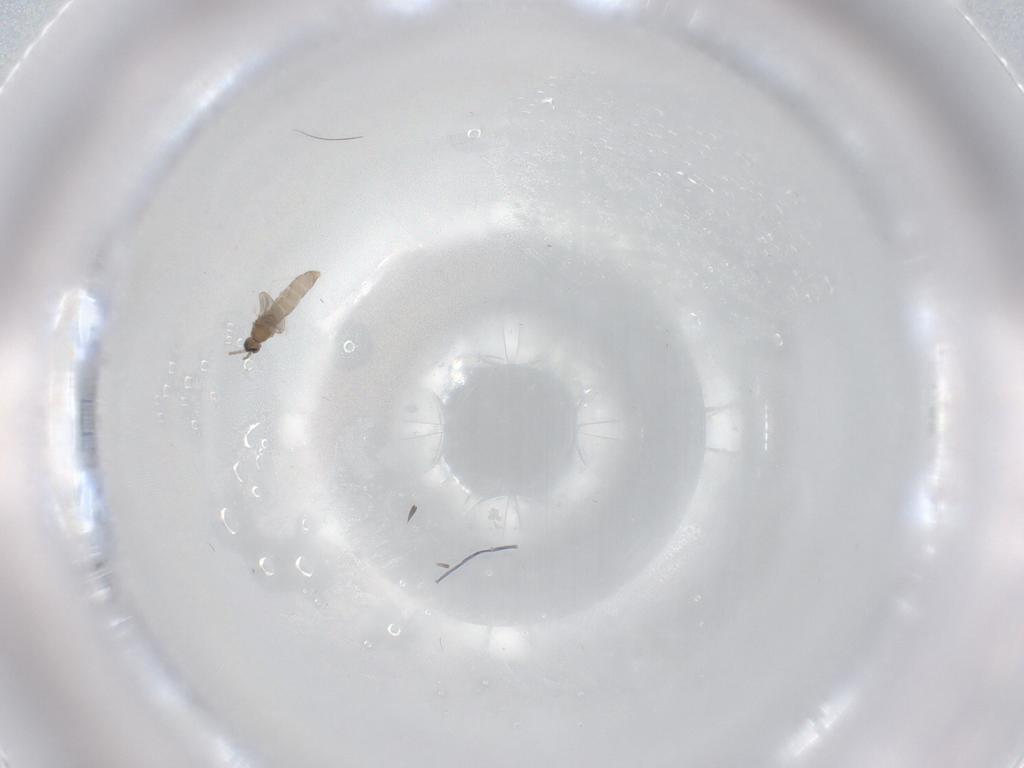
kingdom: Animalia
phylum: Arthropoda
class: Insecta
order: Diptera
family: Cecidomyiidae
